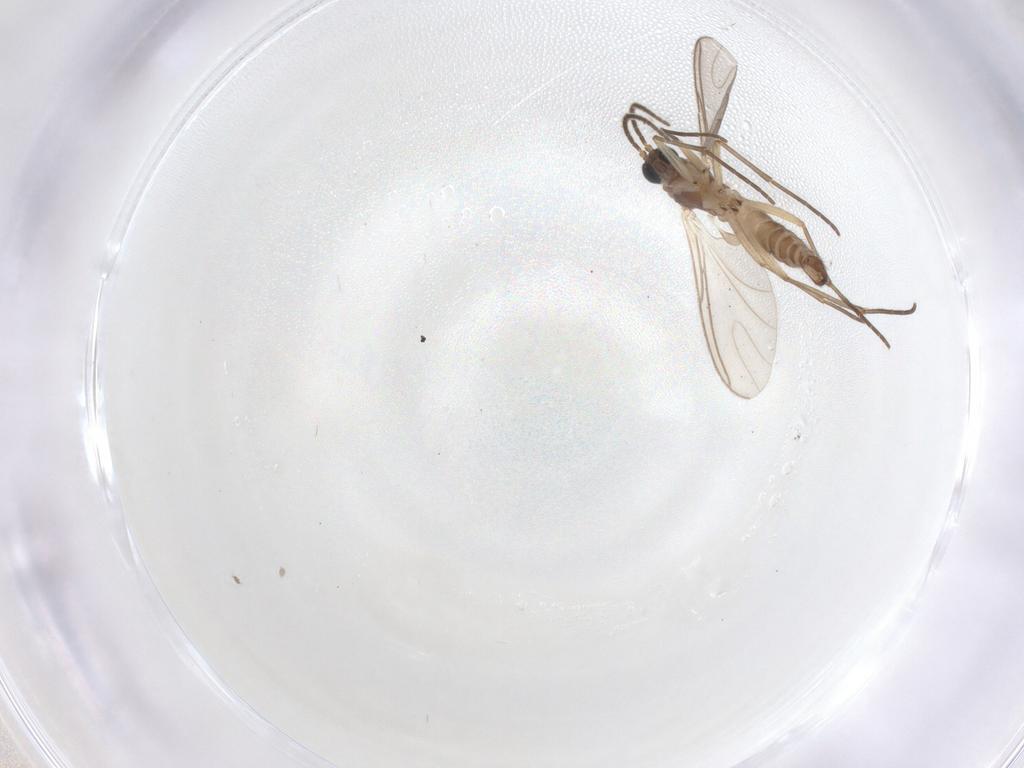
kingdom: Animalia
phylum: Arthropoda
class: Insecta
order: Diptera
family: Sciaridae
